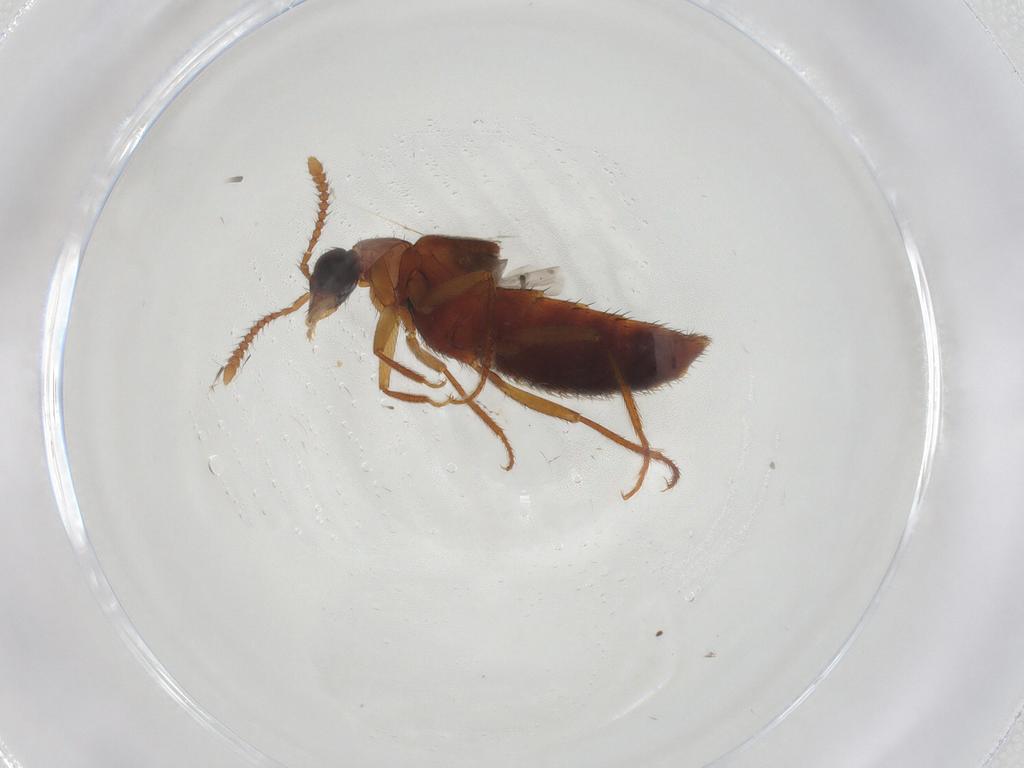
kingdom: Animalia
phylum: Arthropoda
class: Insecta
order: Coleoptera
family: Staphylinidae
